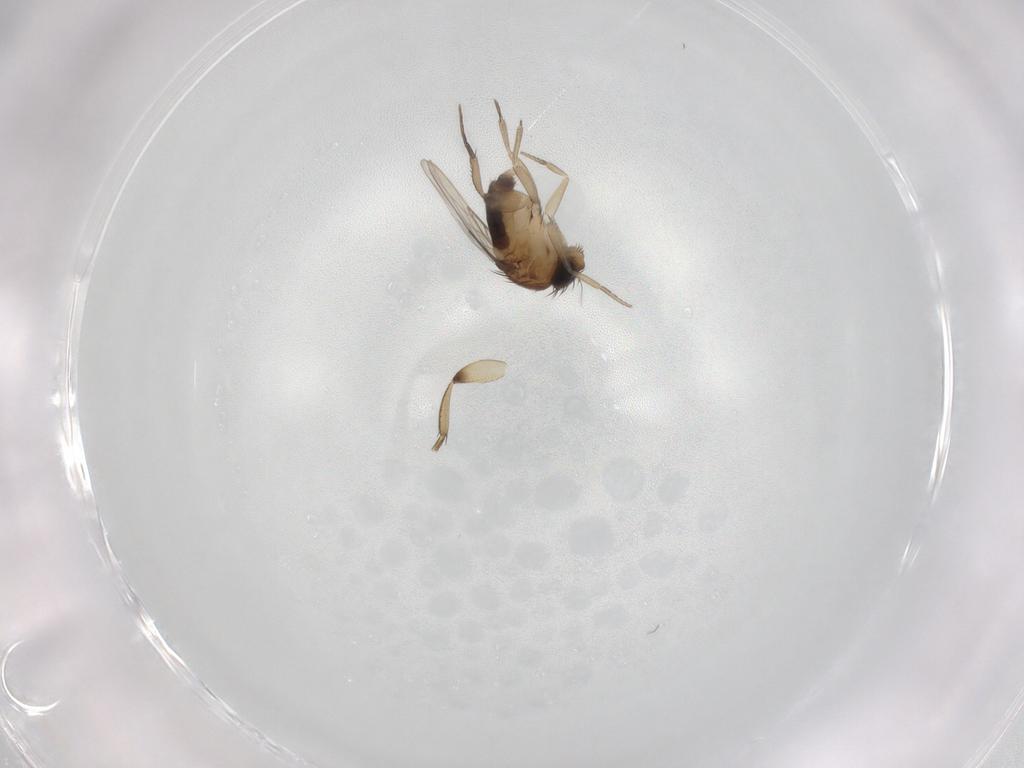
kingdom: Animalia
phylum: Arthropoda
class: Insecta
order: Diptera
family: Phoridae
